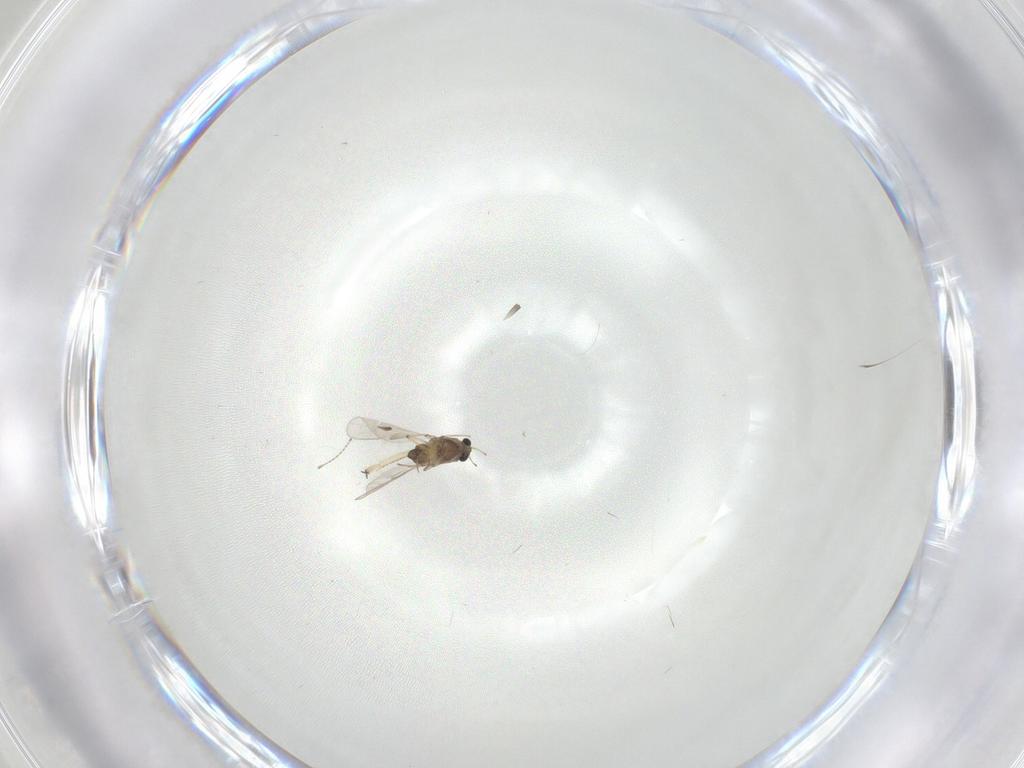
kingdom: Animalia
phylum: Arthropoda
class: Insecta
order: Diptera
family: Chironomidae
